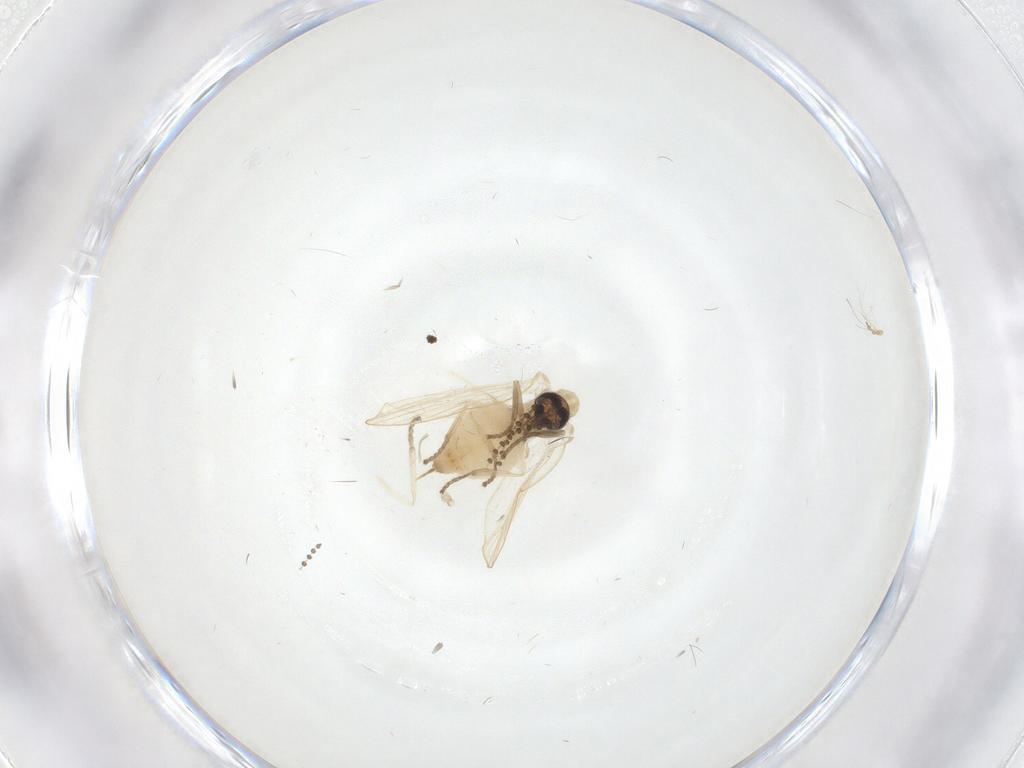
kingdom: Animalia
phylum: Arthropoda
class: Insecta
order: Diptera
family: Psychodidae
